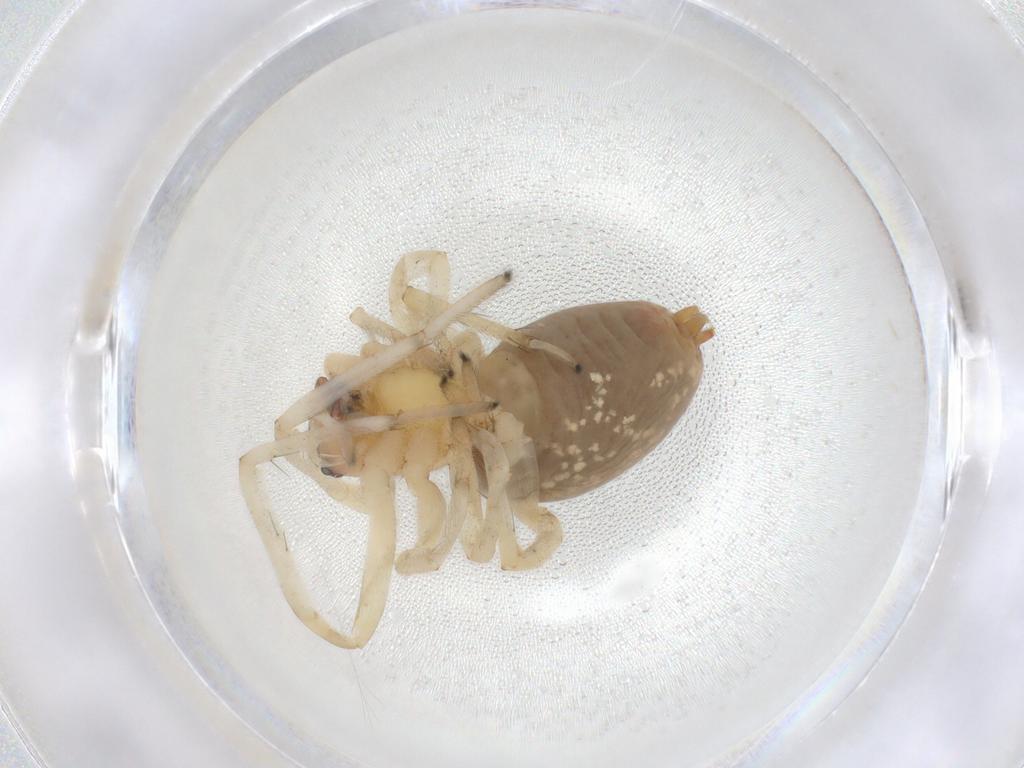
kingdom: Animalia
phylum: Arthropoda
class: Arachnida
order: Araneae
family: Cheiracanthiidae
